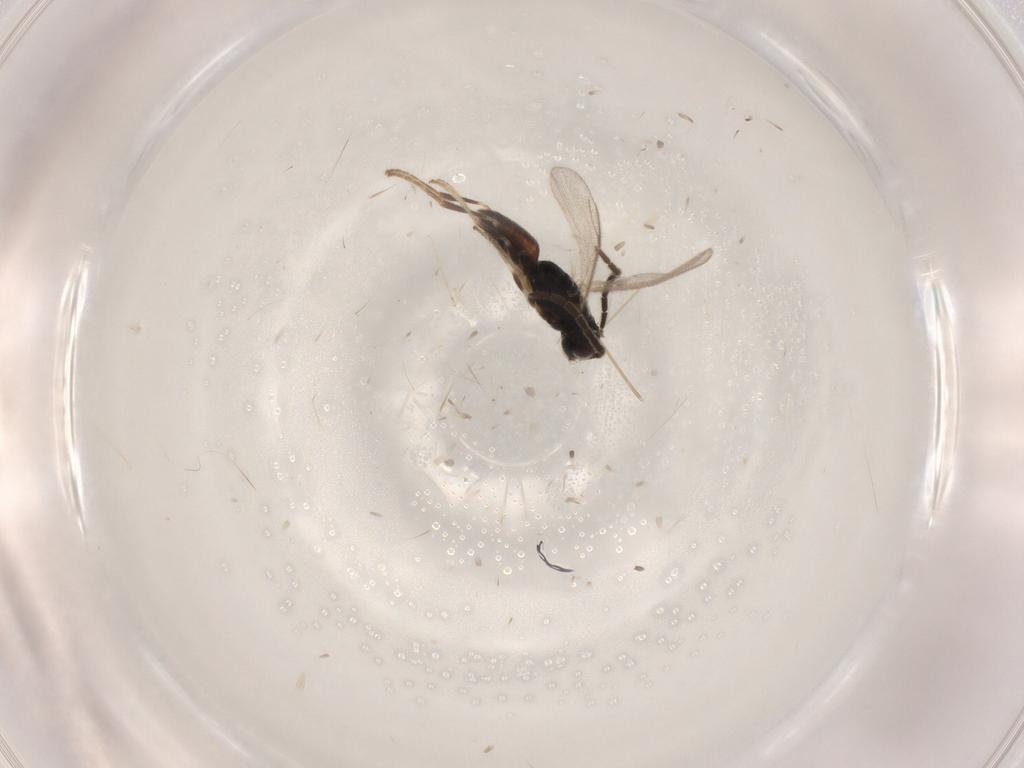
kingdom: Animalia
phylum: Arthropoda
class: Insecta
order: Hymenoptera
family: Dryinidae
